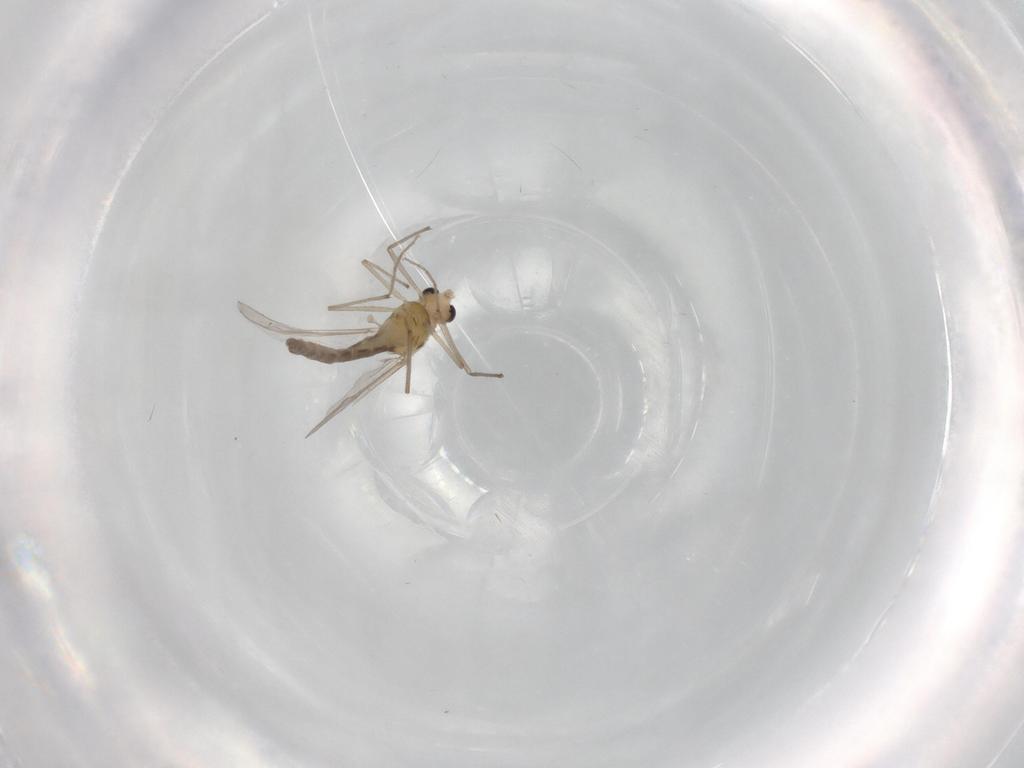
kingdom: Animalia
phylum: Arthropoda
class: Insecta
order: Diptera
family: Chironomidae
